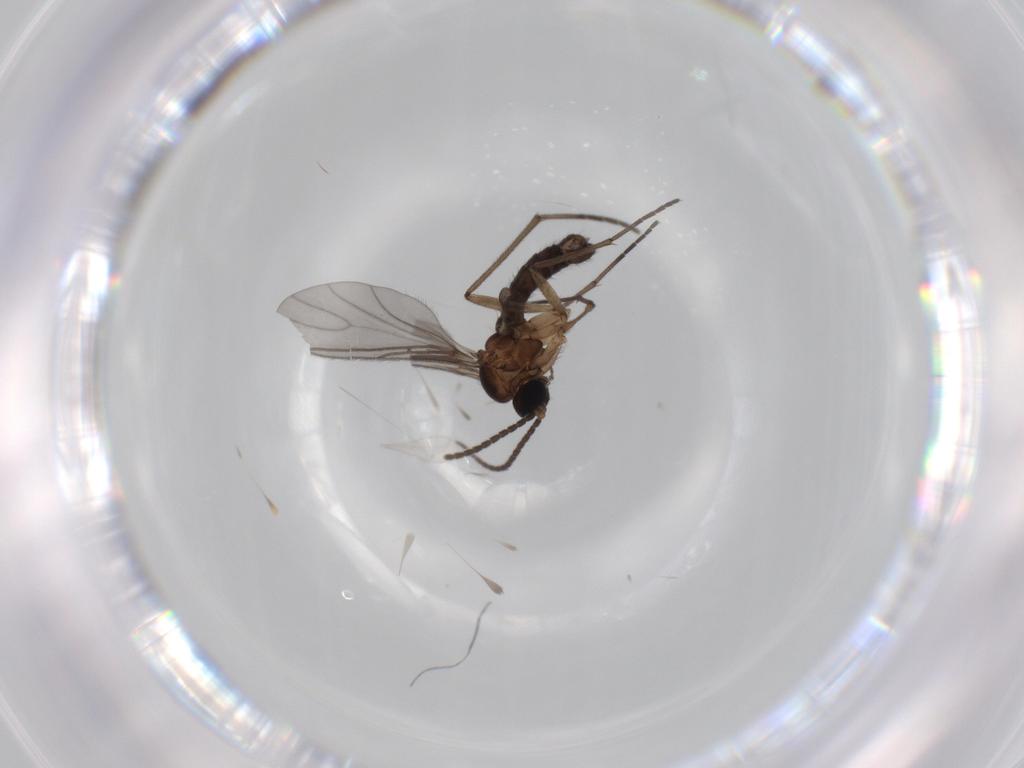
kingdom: Animalia
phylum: Arthropoda
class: Insecta
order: Diptera
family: Sciaridae
